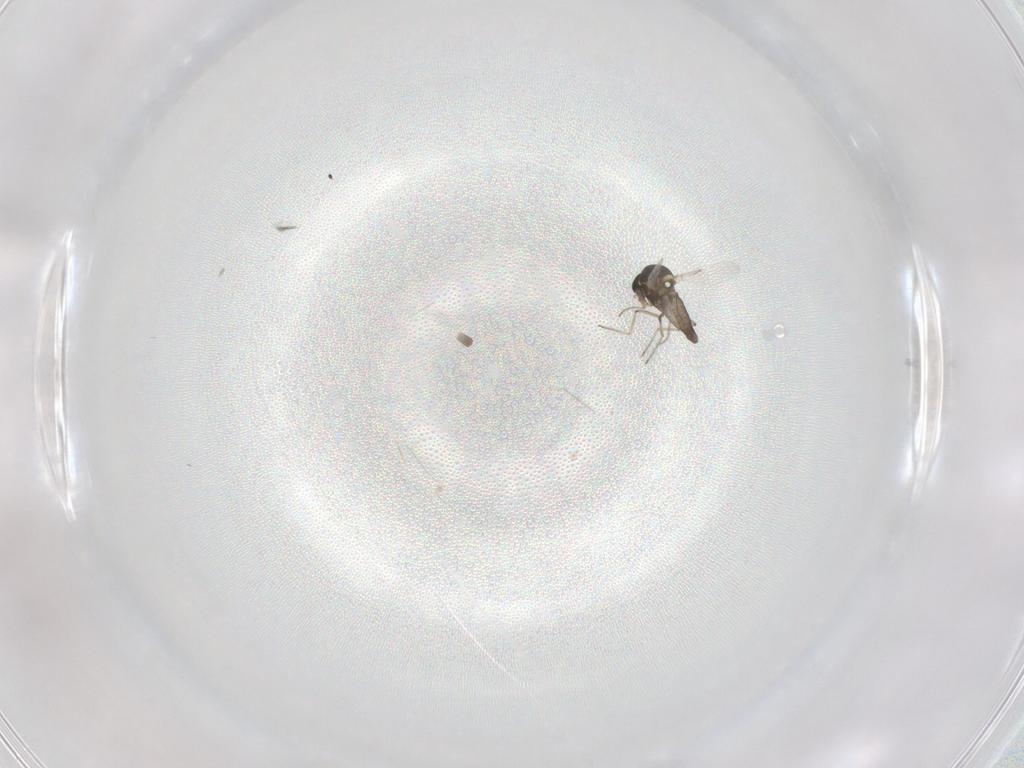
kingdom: Animalia
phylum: Arthropoda
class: Insecta
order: Diptera
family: Ceratopogonidae
